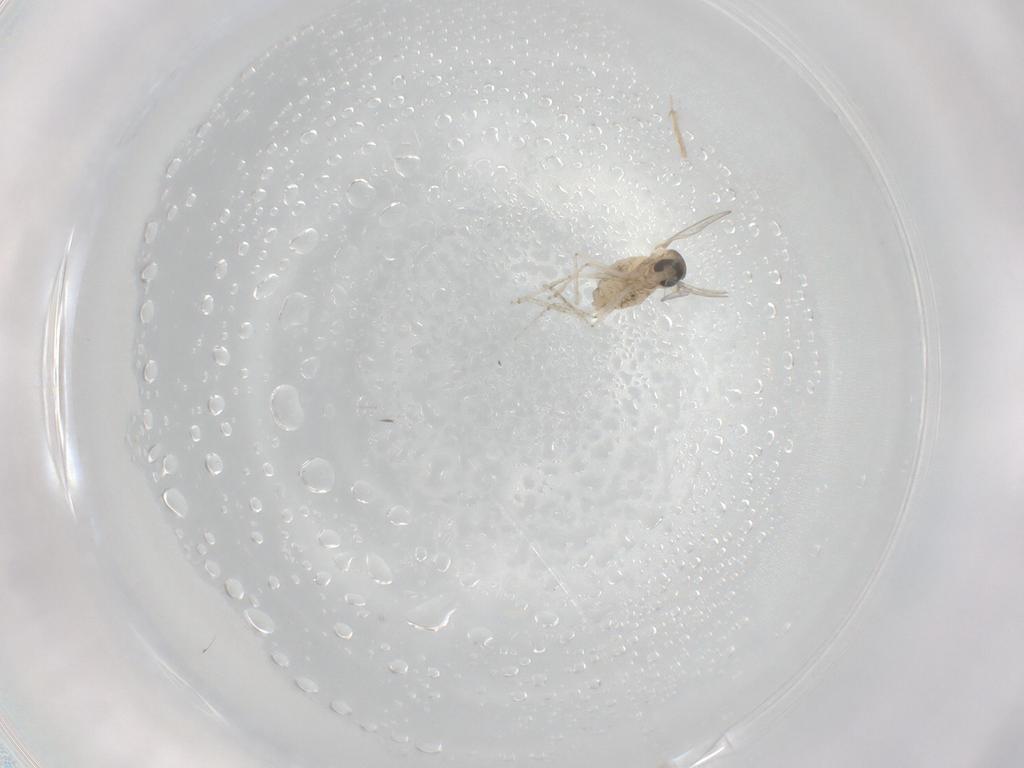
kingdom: Animalia
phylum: Arthropoda
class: Insecta
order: Diptera
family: Cecidomyiidae
